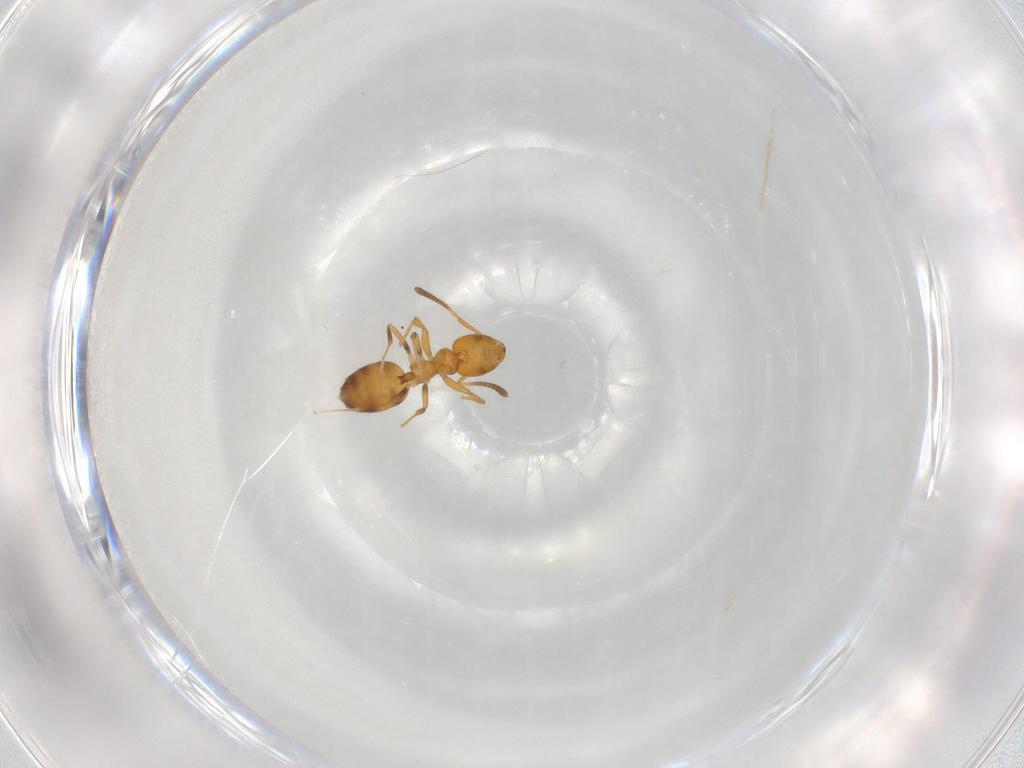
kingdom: Animalia
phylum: Arthropoda
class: Insecta
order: Hymenoptera
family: Formicidae
